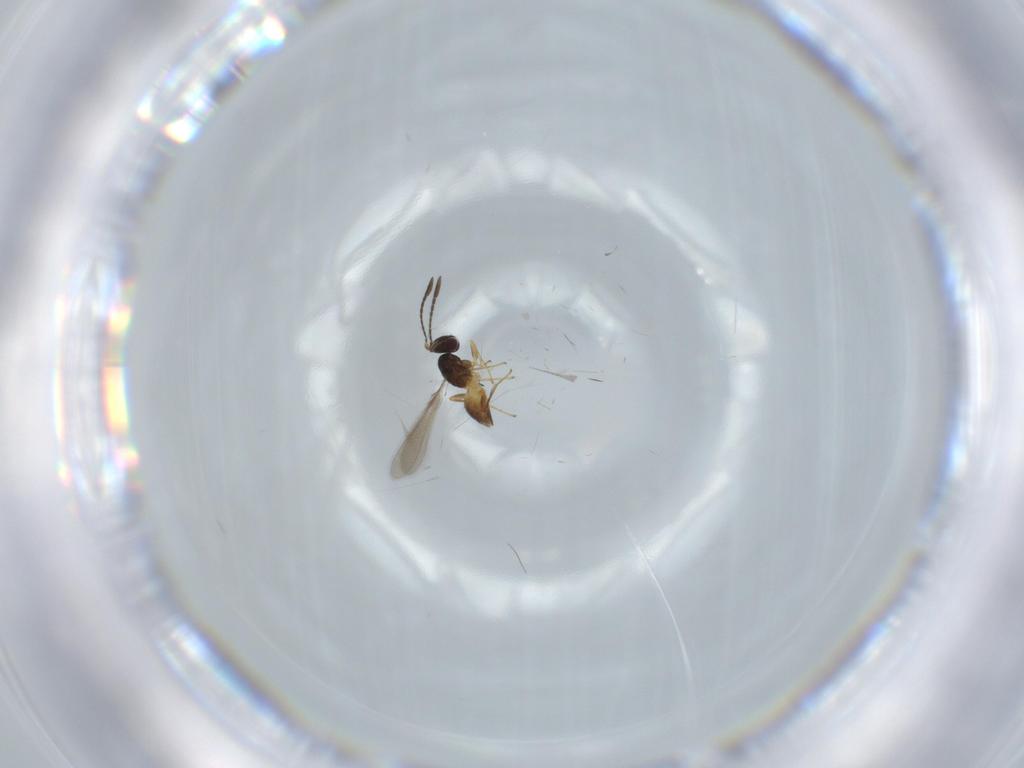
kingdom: Animalia
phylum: Arthropoda
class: Insecta
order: Hymenoptera
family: Mymaridae
